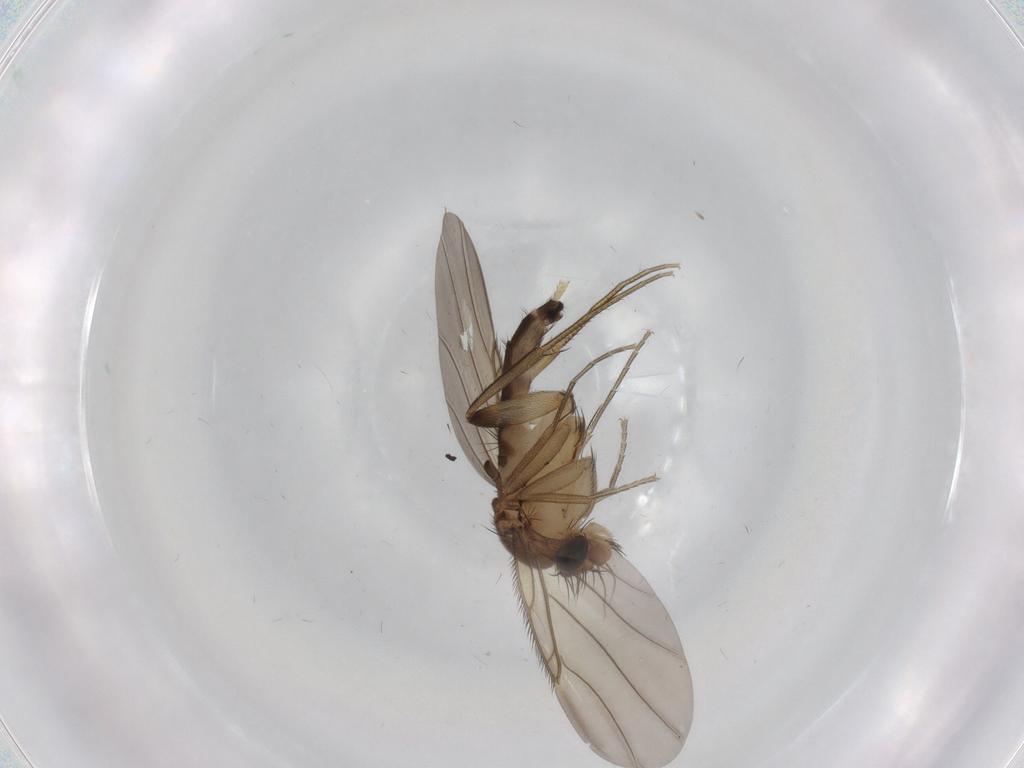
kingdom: Animalia
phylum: Arthropoda
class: Insecta
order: Diptera
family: Phoridae
